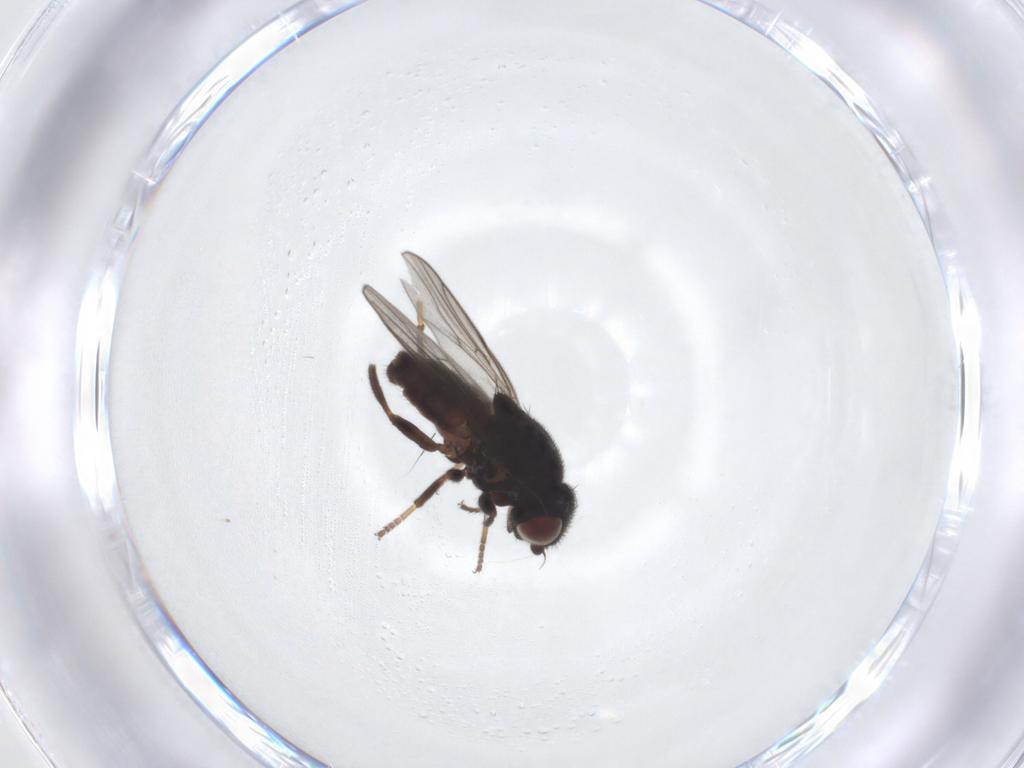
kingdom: Animalia
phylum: Arthropoda
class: Insecta
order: Diptera
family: Chloropidae
